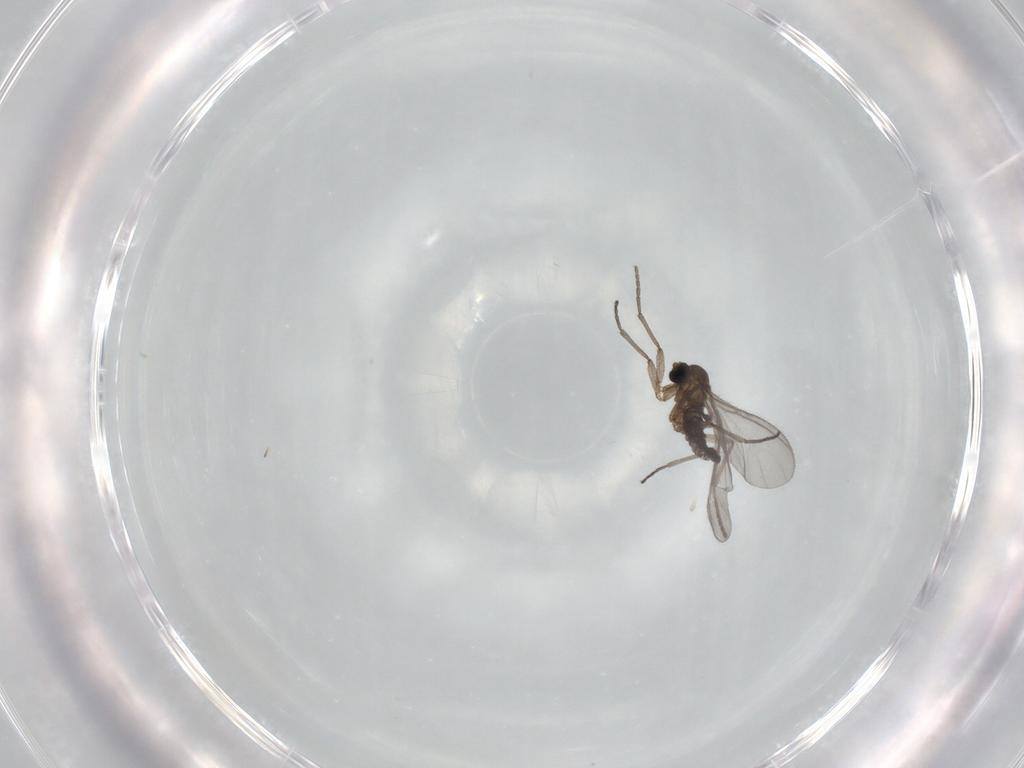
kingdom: Animalia
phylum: Arthropoda
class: Insecta
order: Diptera
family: Sciaridae
